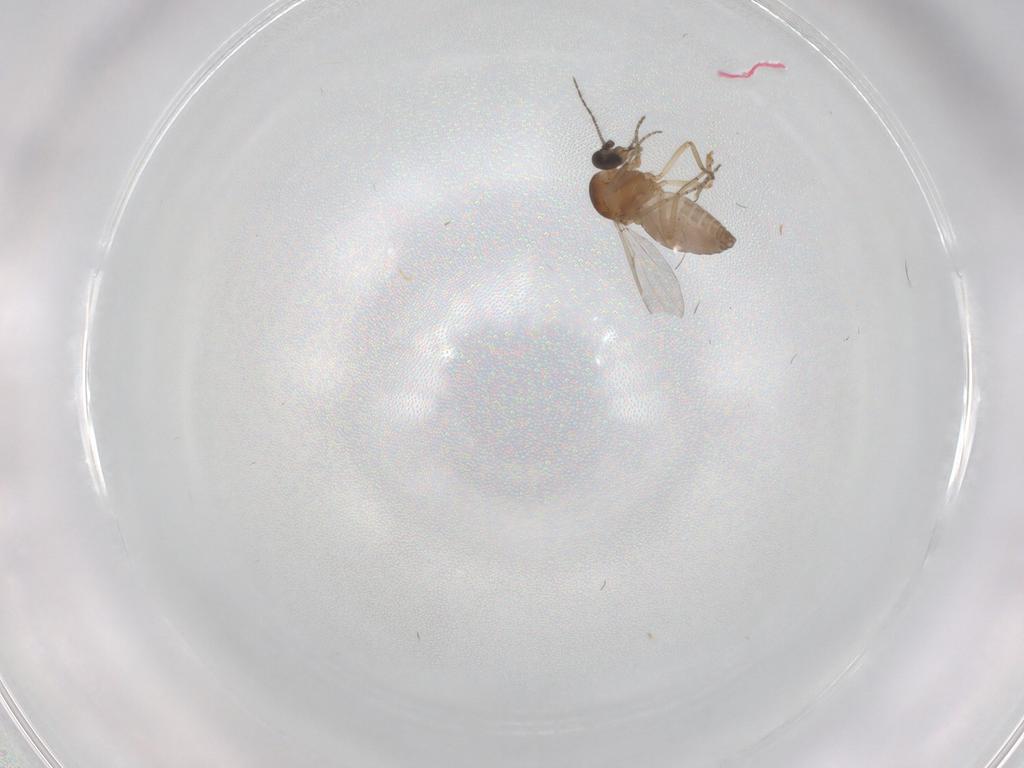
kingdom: Animalia
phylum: Arthropoda
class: Insecta
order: Diptera
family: Ceratopogonidae
